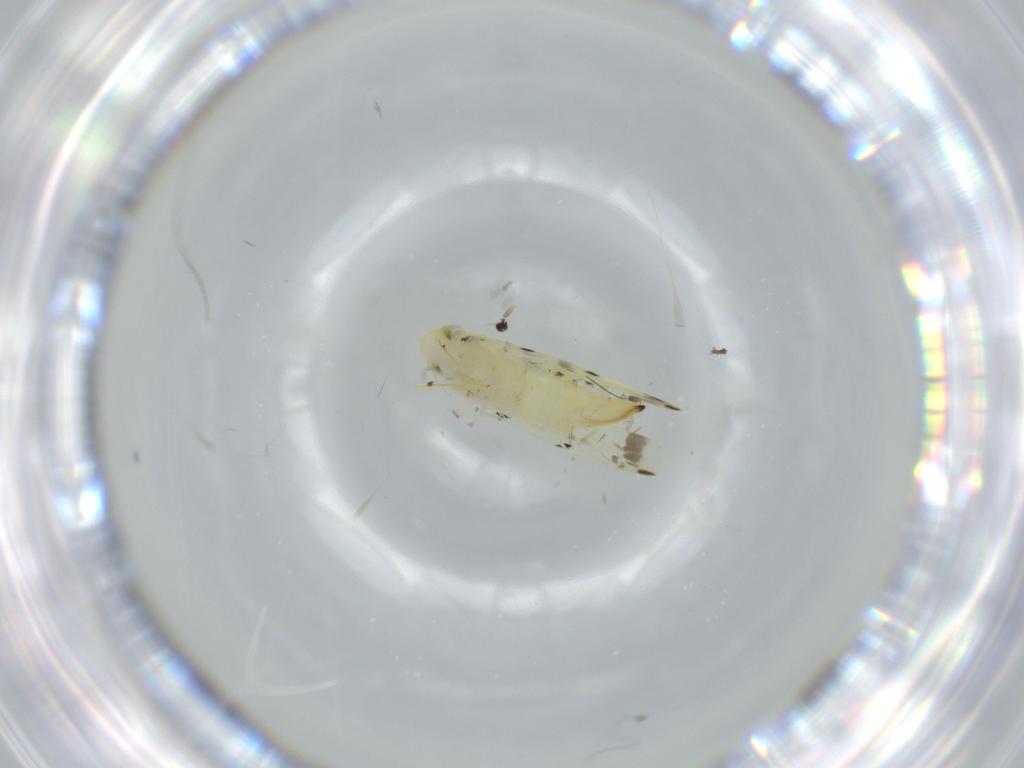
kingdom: Animalia
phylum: Arthropoda
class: Insecta
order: Hemiptera
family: Cicadellidae
